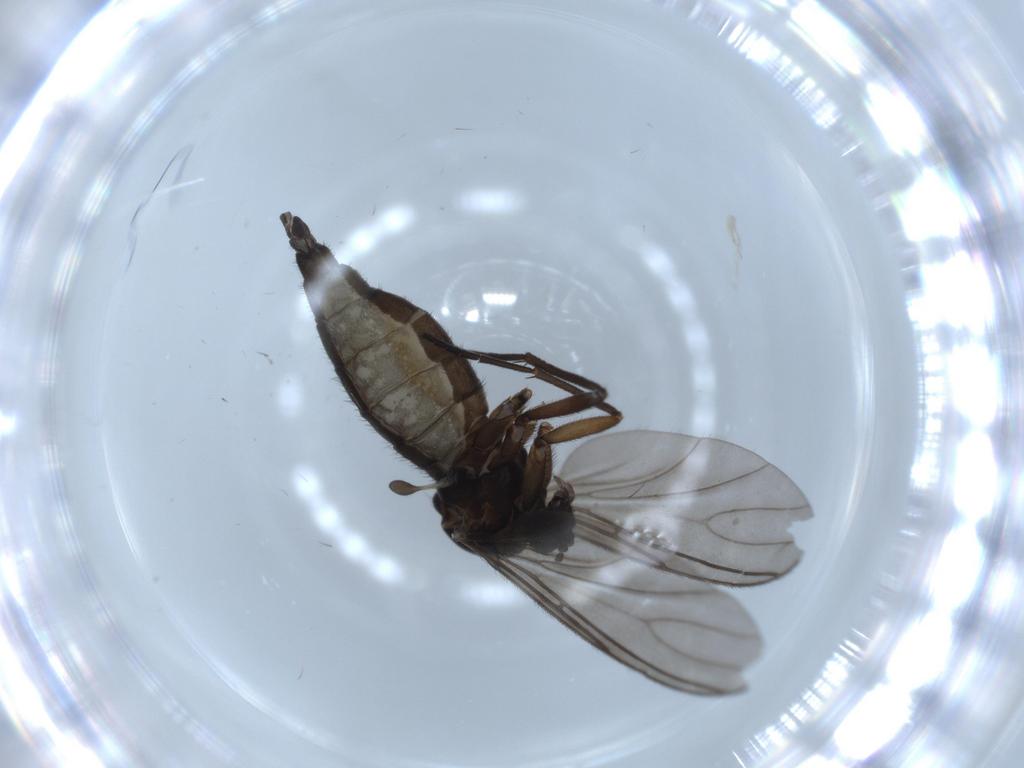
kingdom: Animalia
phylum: Arthropoda
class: Insecta
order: Diptera
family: Sciaridae
